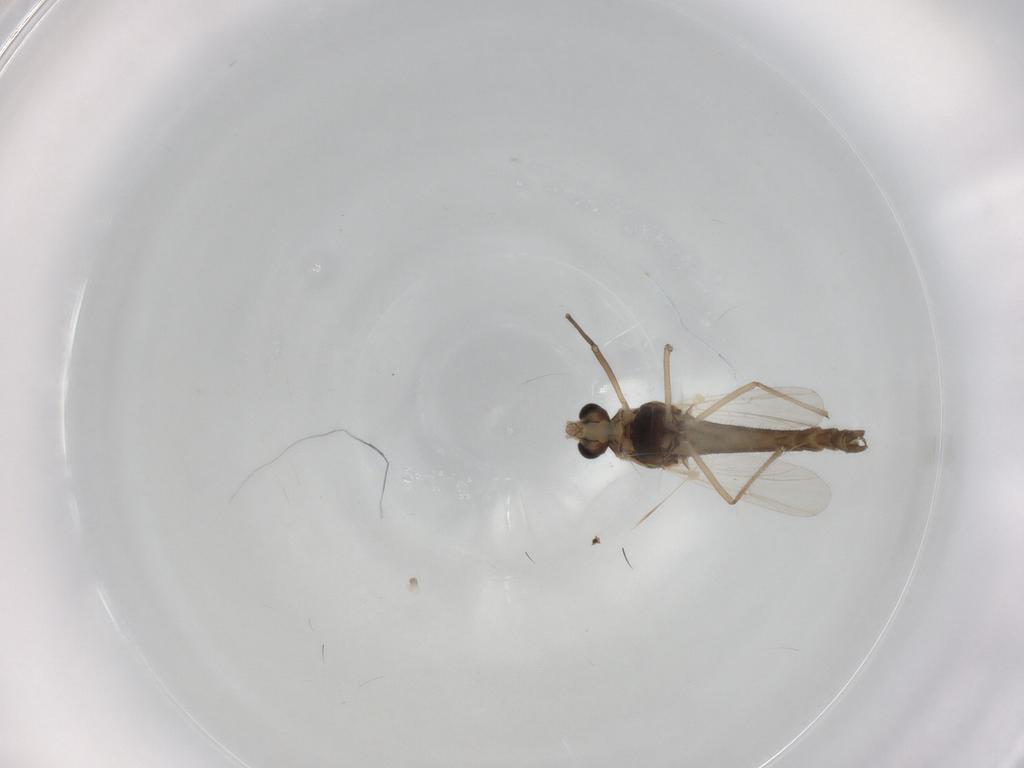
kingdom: Animalia
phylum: Arthropoda
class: Insecta
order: Diptera
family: Chironomidae
